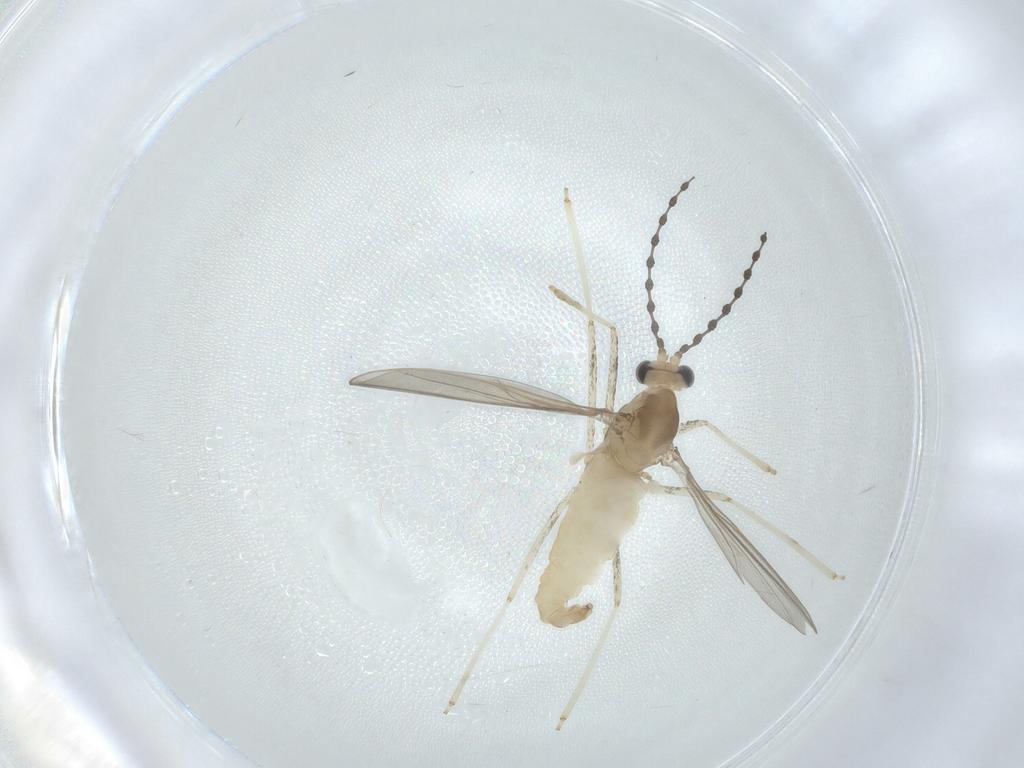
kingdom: Animalia
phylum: Arthropoda
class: Insecta
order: Diptera
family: Cecidomyiidae
